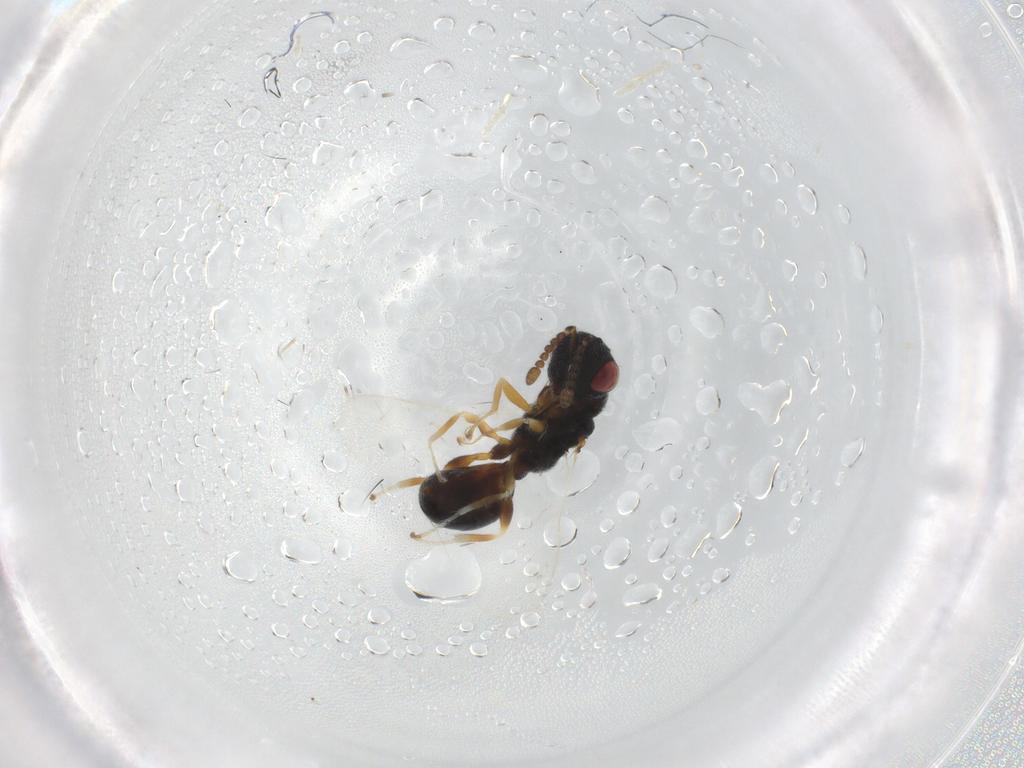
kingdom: Animalia
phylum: Arthropoda
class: Insecta
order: Hymenoptera
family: Eurytomidae
